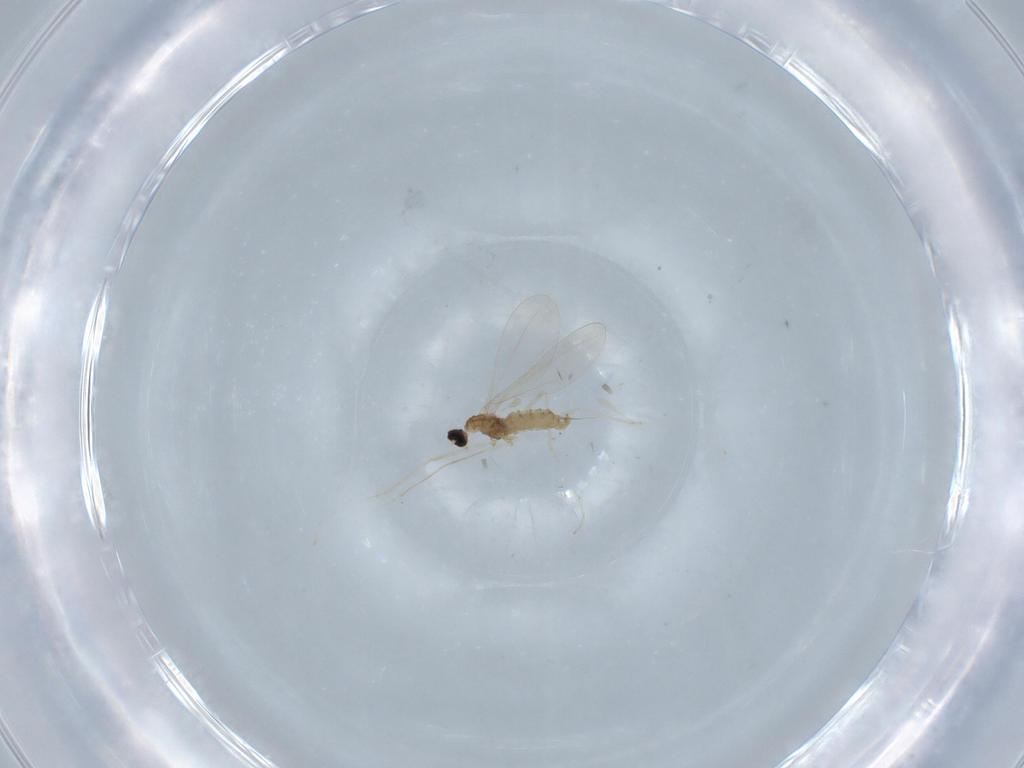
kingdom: Animalia
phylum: Arthropoda
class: Insecta
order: Diptera
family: Cecidomyiidae
